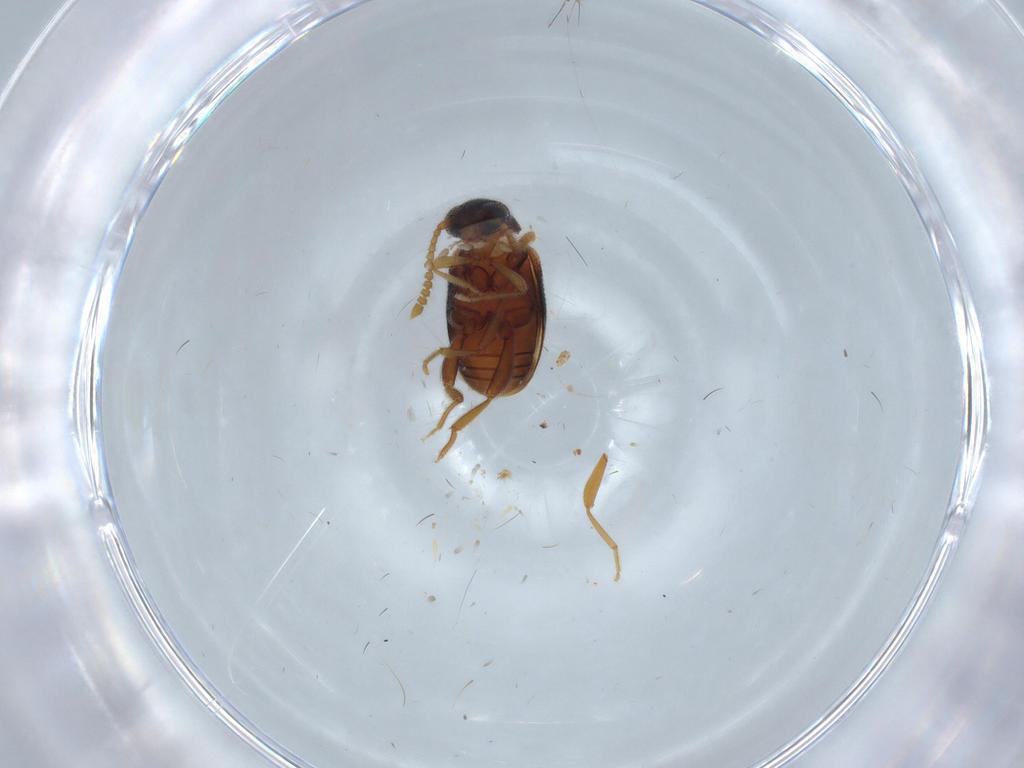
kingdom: Animalia
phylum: Arthropoda
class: Insecta
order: Coleoptera
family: Aderidae
